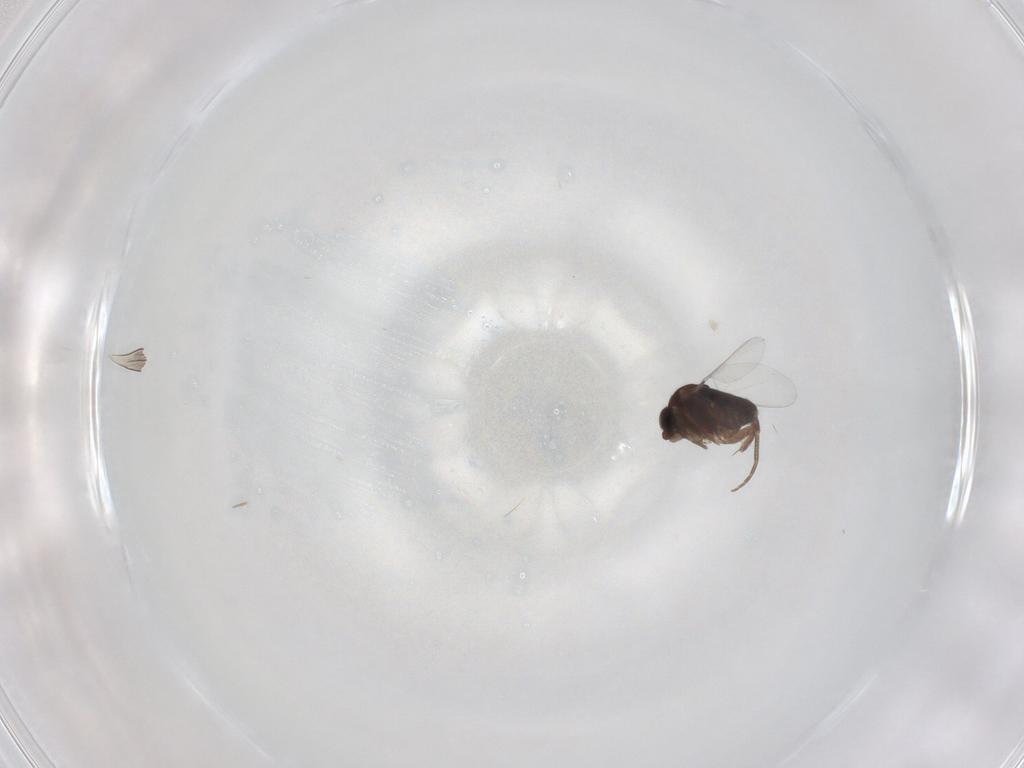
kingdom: Animalia
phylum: Arthropoda
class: Insecta
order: Diptera
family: Phoridae
